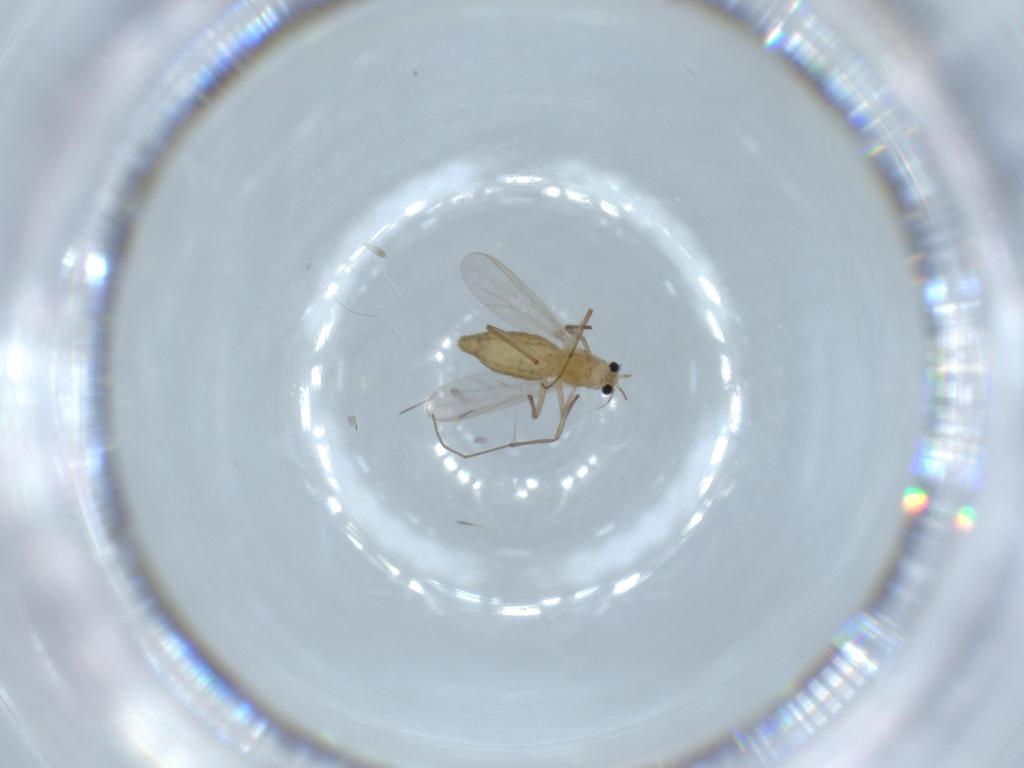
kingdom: Animalia
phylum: Arthropoda
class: Insecta
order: Diptera
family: Chironomidae
